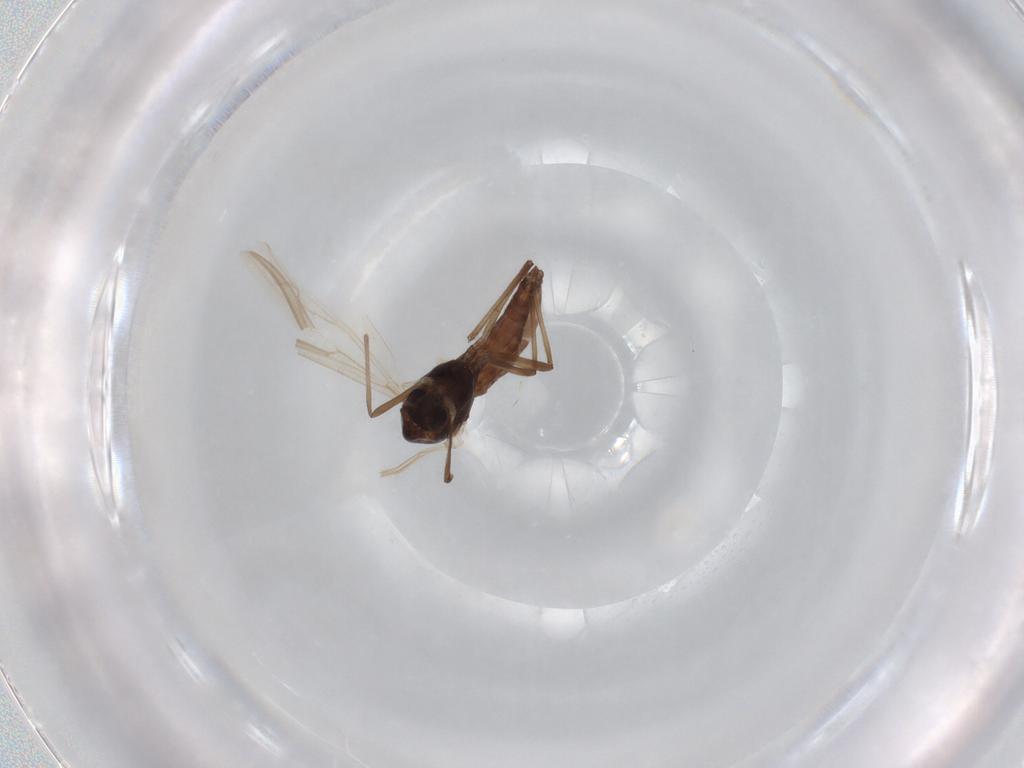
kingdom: Animalia
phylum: Arthropoda
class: Insecta
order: Diptera
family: Chironomidae
